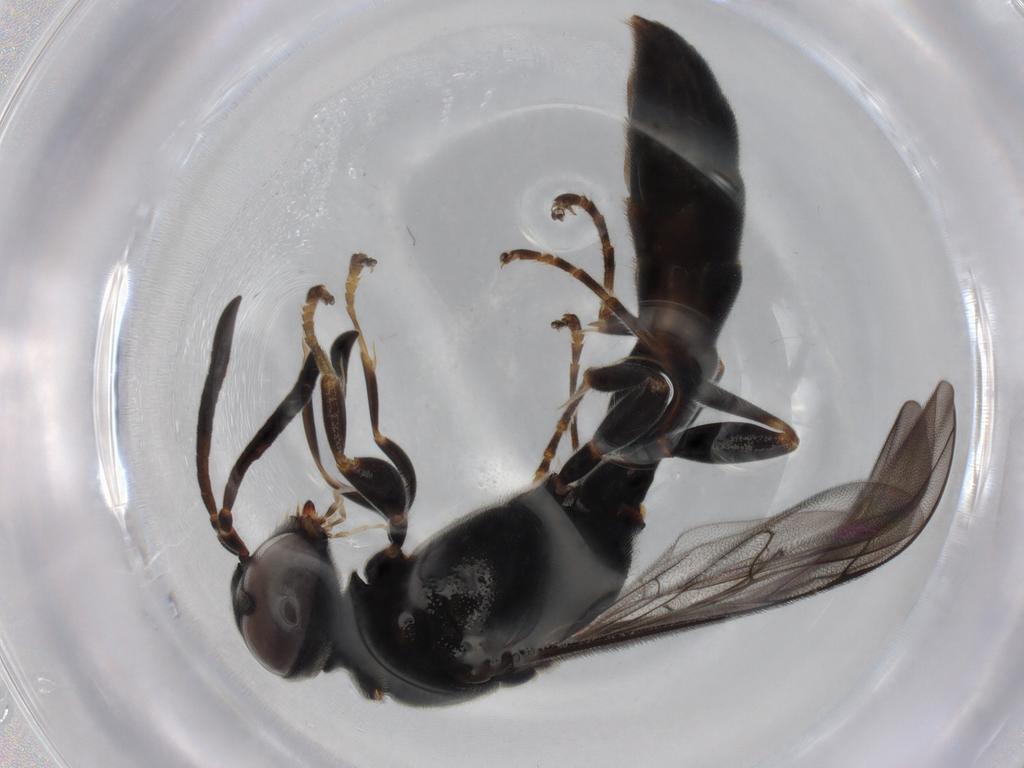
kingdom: Animalia
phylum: Arthropoda
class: Insecta
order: Hymenoptera
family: Crabronidae
